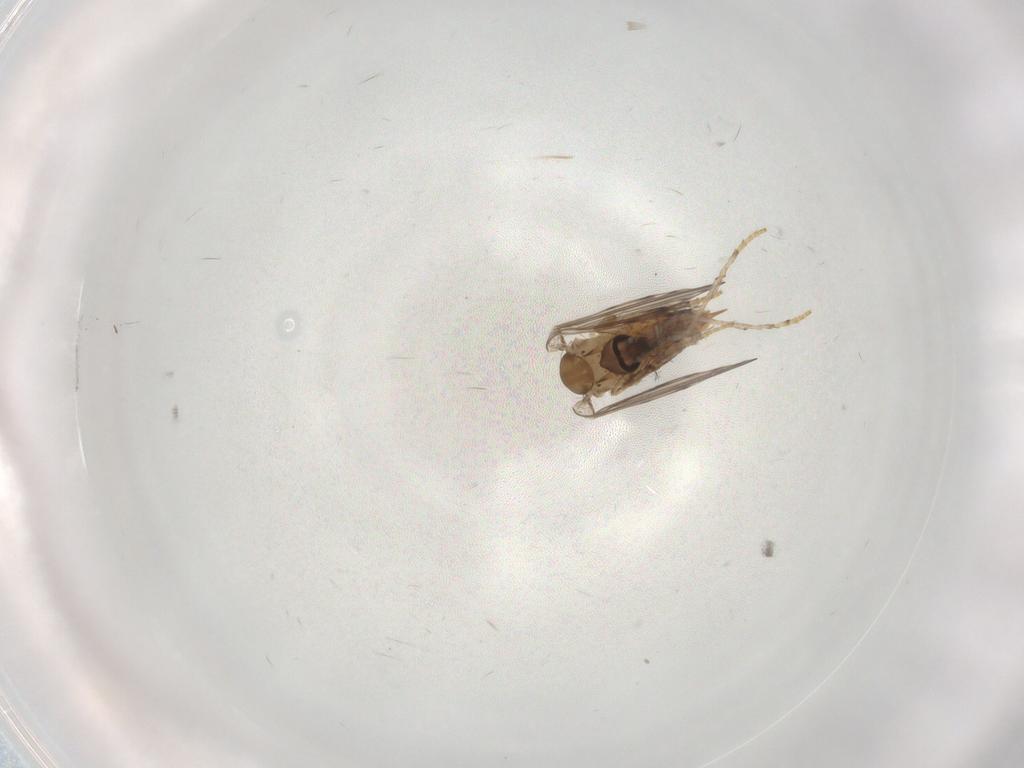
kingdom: Animalia
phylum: Arthropoda
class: Insecta
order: Diptera
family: Psychodidae
